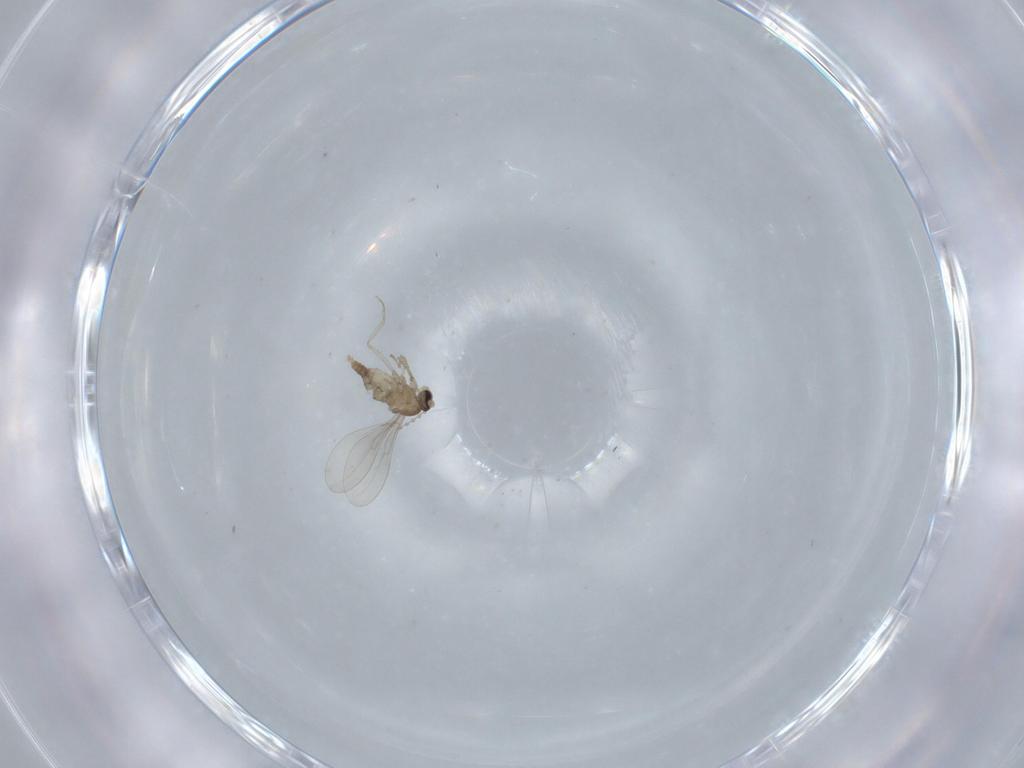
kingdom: Animalia
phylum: Arthropoda
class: Insecta
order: Diptera
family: Cecidomyiidae
